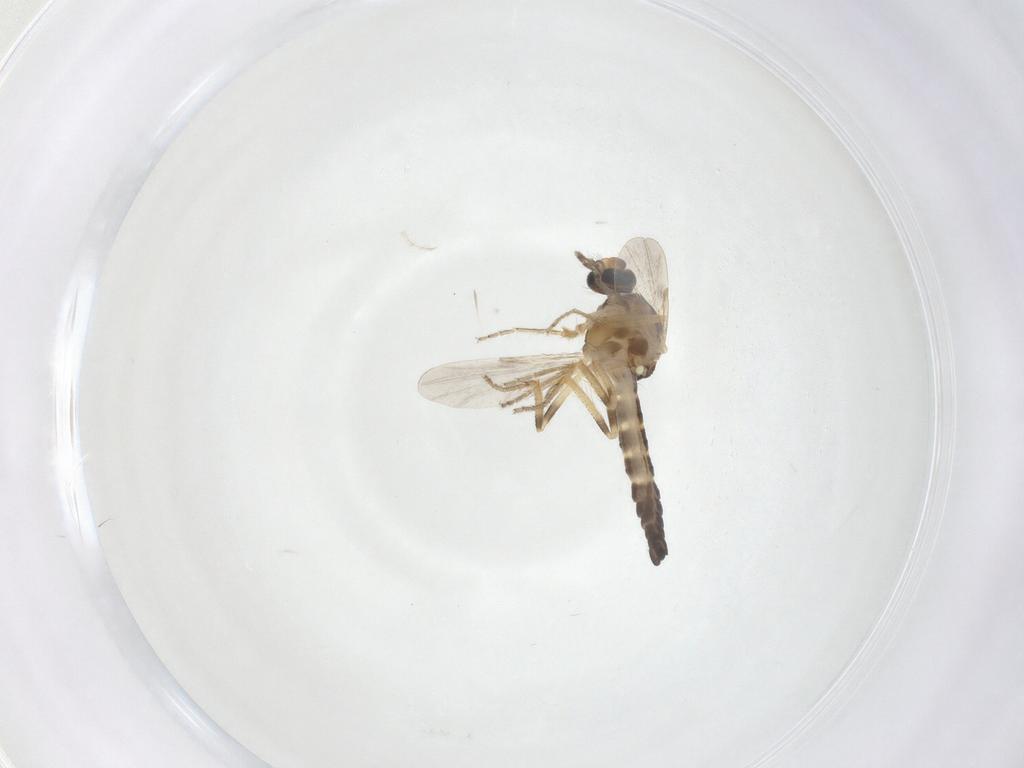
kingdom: Animalia
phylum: Arthropoda
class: Insecta
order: Diptera
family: Ceratopogonidae
